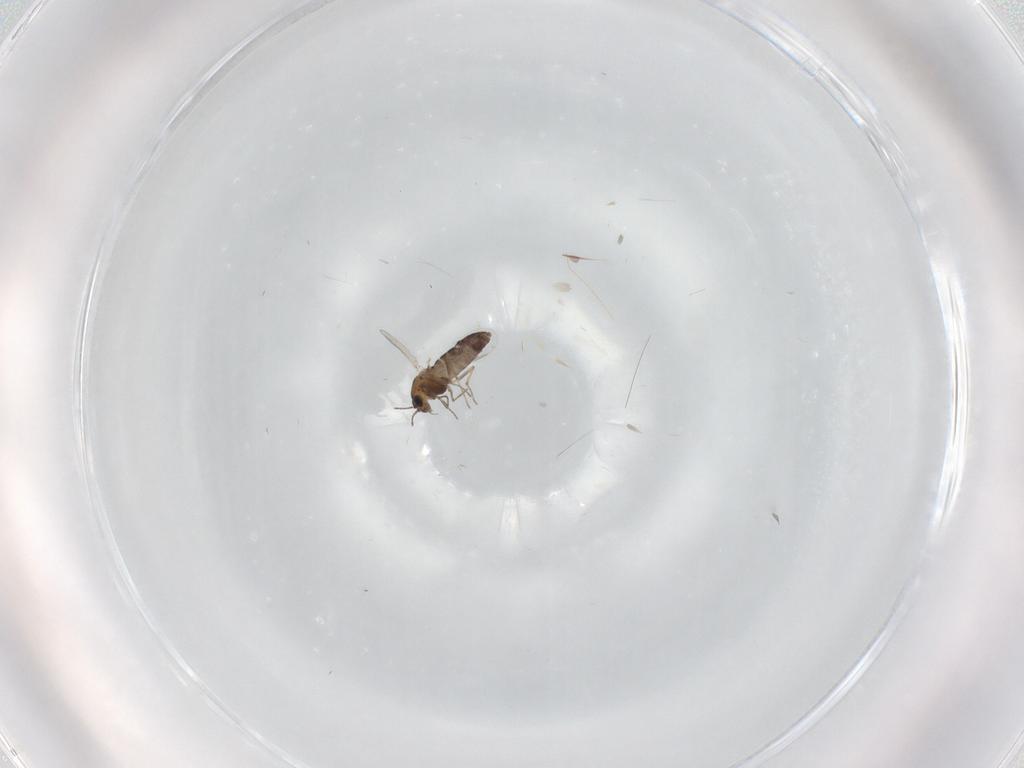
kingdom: Animalia
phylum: Arthropoda
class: Insecta
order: Diptera
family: Chironomidae
